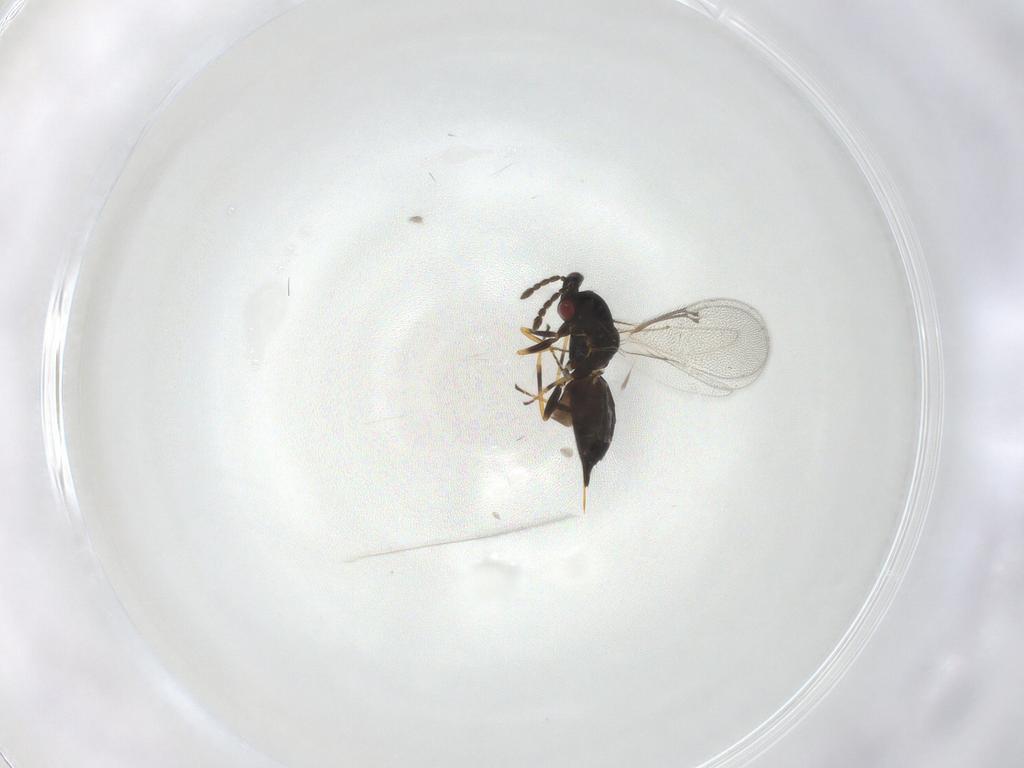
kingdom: Animalia
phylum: Arthropoda
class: Insecta
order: Hymenoptera
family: Eulophidae
